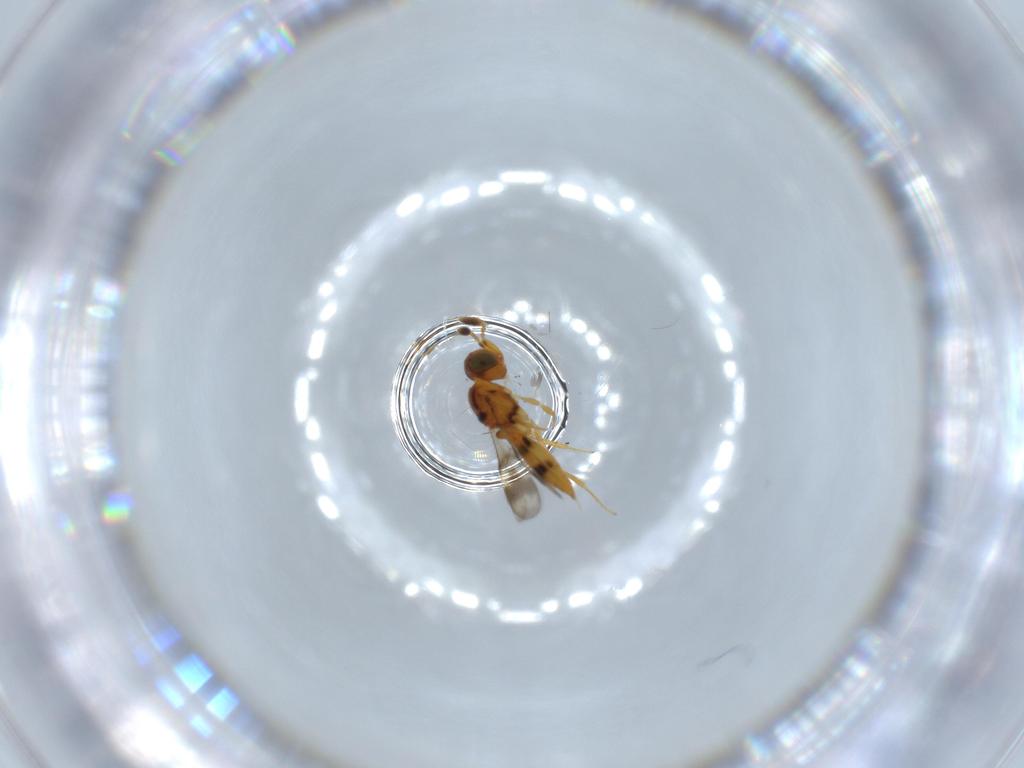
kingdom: Animalia
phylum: Arthropoda
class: Insecta
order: Hymenoptera
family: Scelionidae
